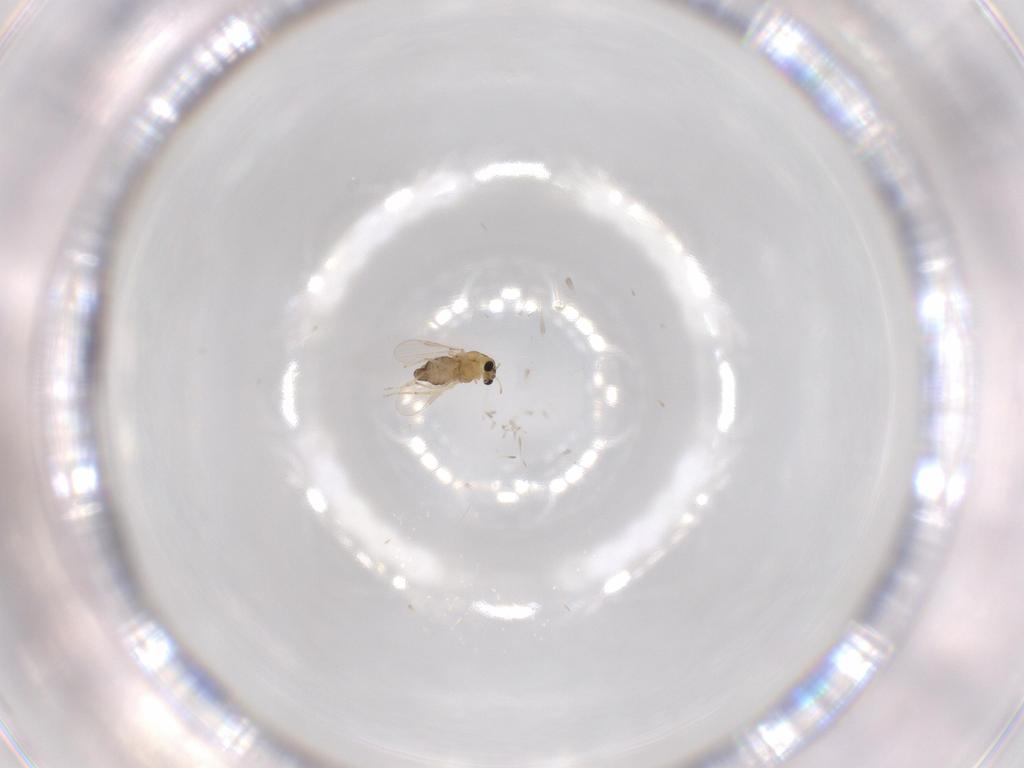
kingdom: Animalia
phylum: Arthropoda
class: Insecta
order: Diptera
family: Chironomidae
